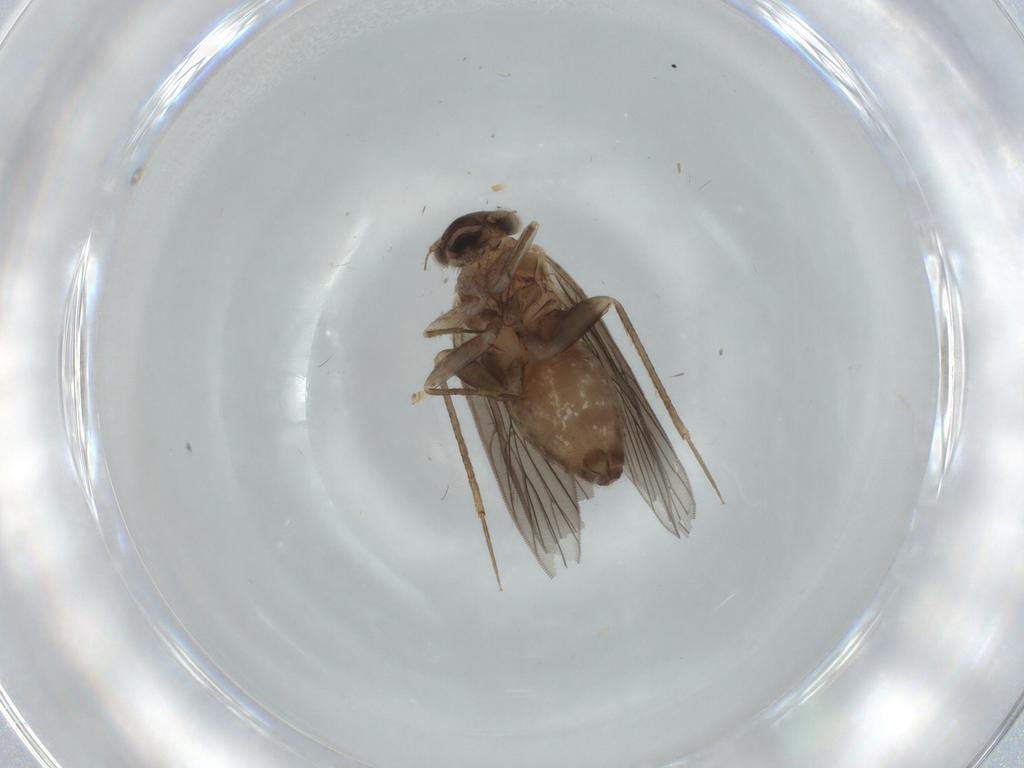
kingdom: Animalia
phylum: Arthropoda
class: Insecta
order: Psocodea
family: Lepidopsocidae
